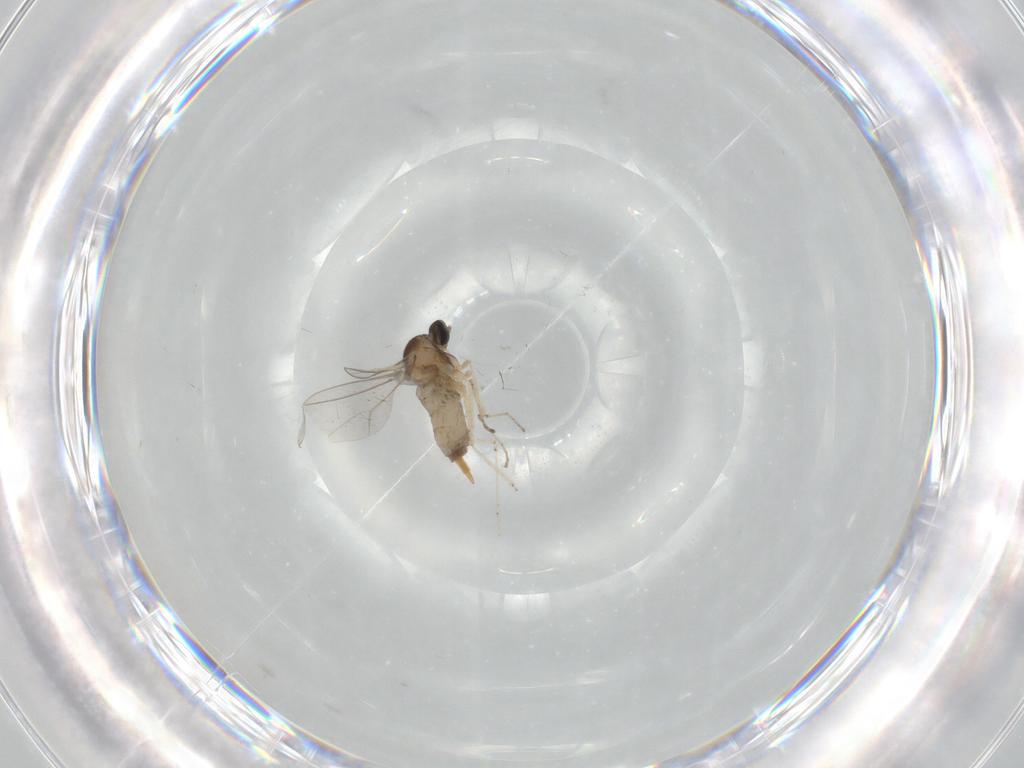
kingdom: Animalia
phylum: Arthropoda
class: Insecta
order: Diptera
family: Cecidomyiidae
